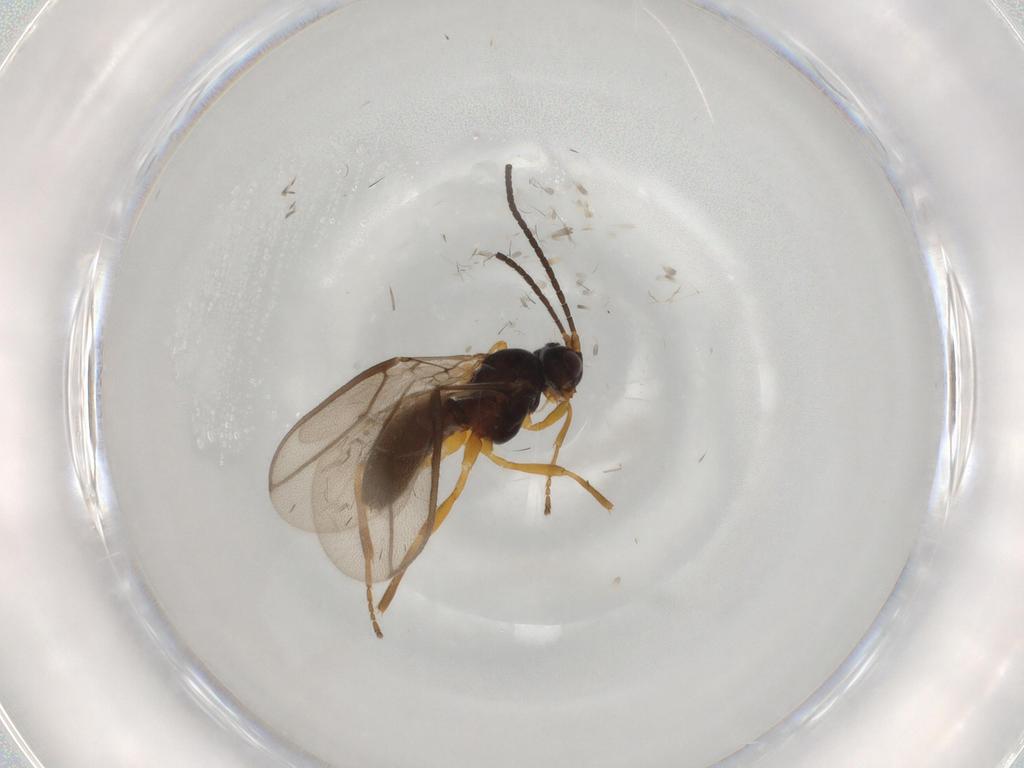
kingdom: Animalia
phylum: Arthropoda
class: Insecta
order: Hymenoptera
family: Braconidae
